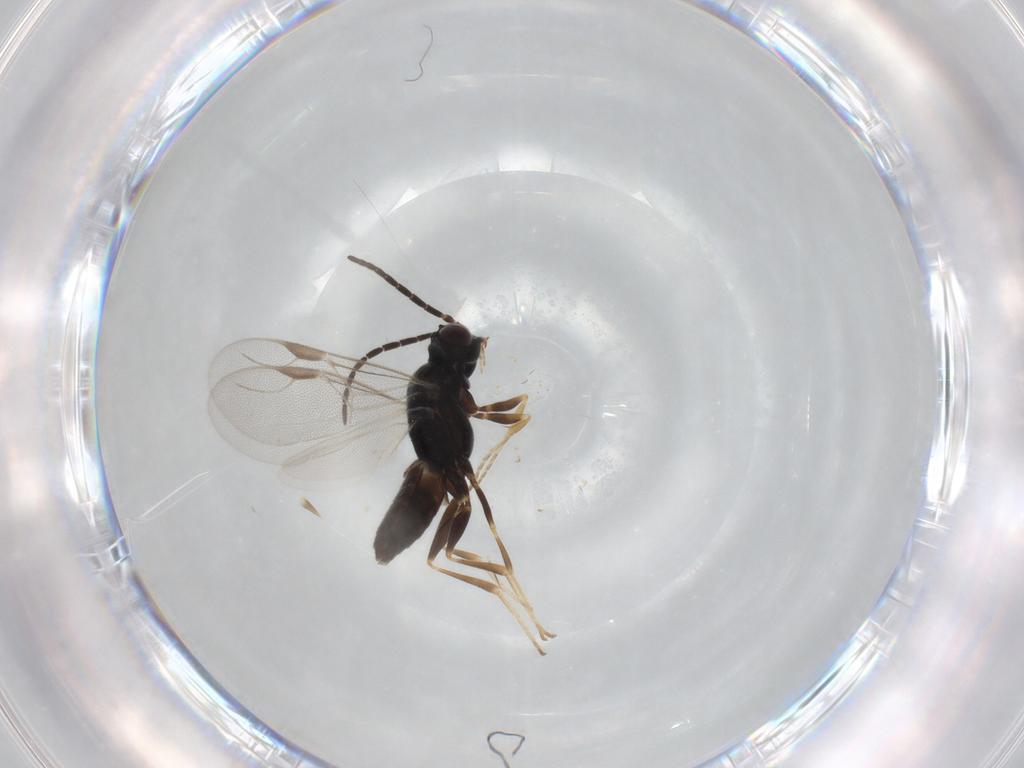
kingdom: Animalia
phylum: Arthropoda
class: Insecta
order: Hymenoptera
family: Dryinidae
